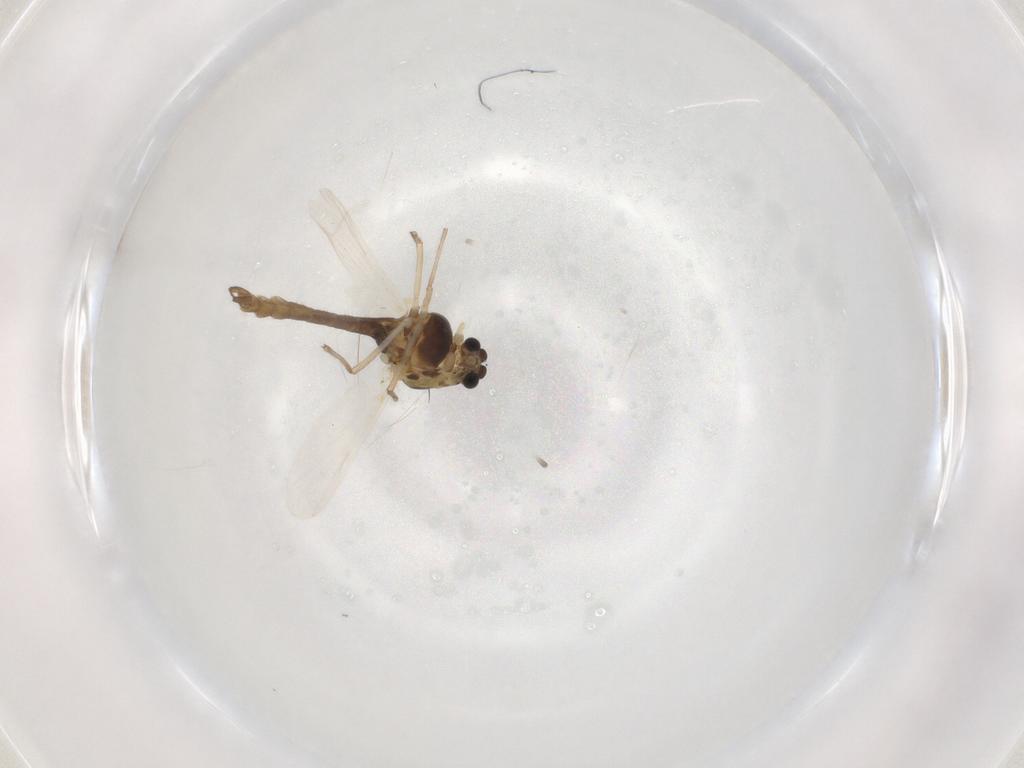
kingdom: Animalia
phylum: Arthropoda
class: Insecta
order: Diptera
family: Chironomidae
